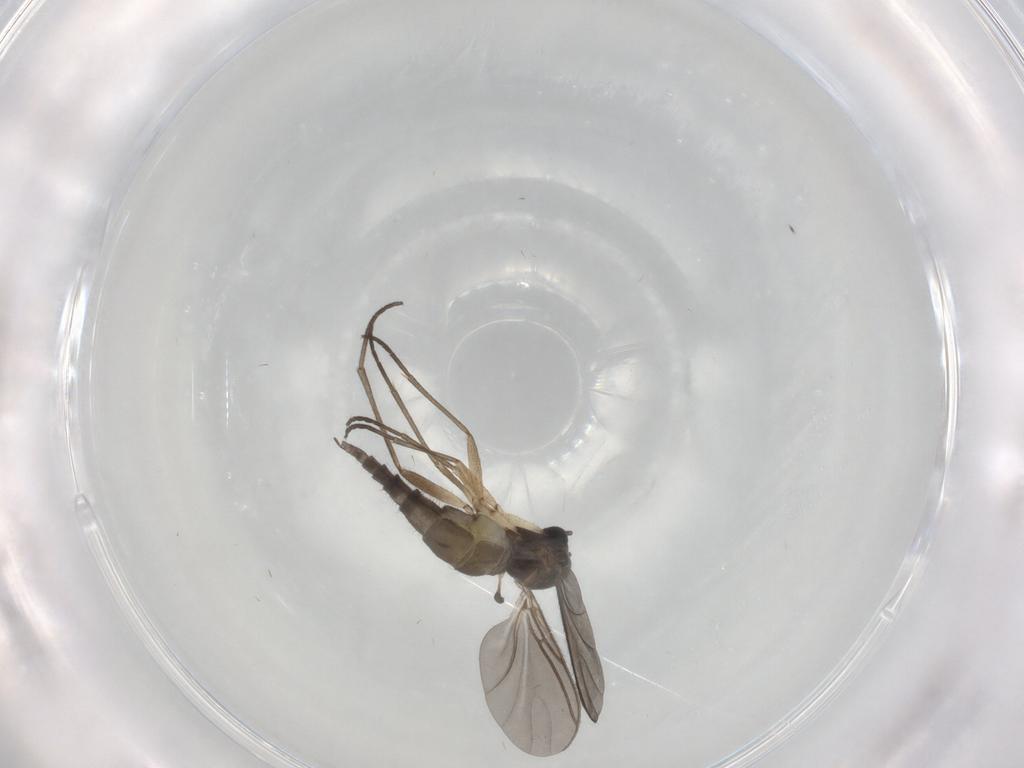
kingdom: Animalia
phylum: Arthropoda
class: Insecta
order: Diptera
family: Sciaridae
